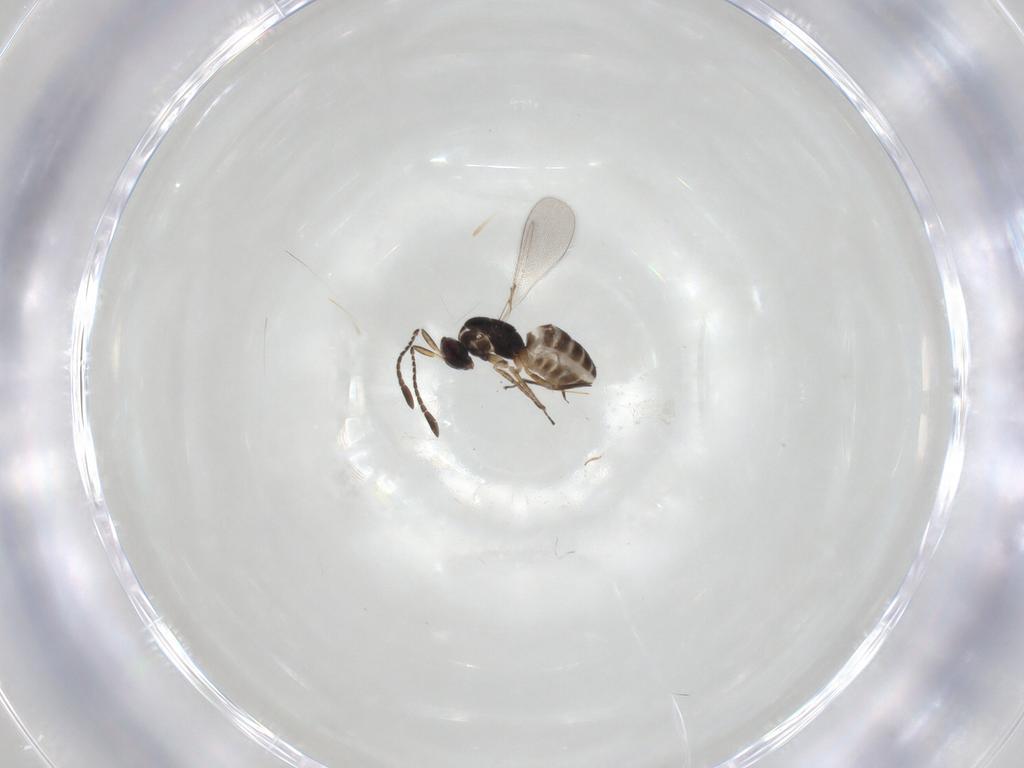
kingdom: Animalia
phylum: Arthropoda
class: Insecta
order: Hymenoptera
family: Mymaridae
